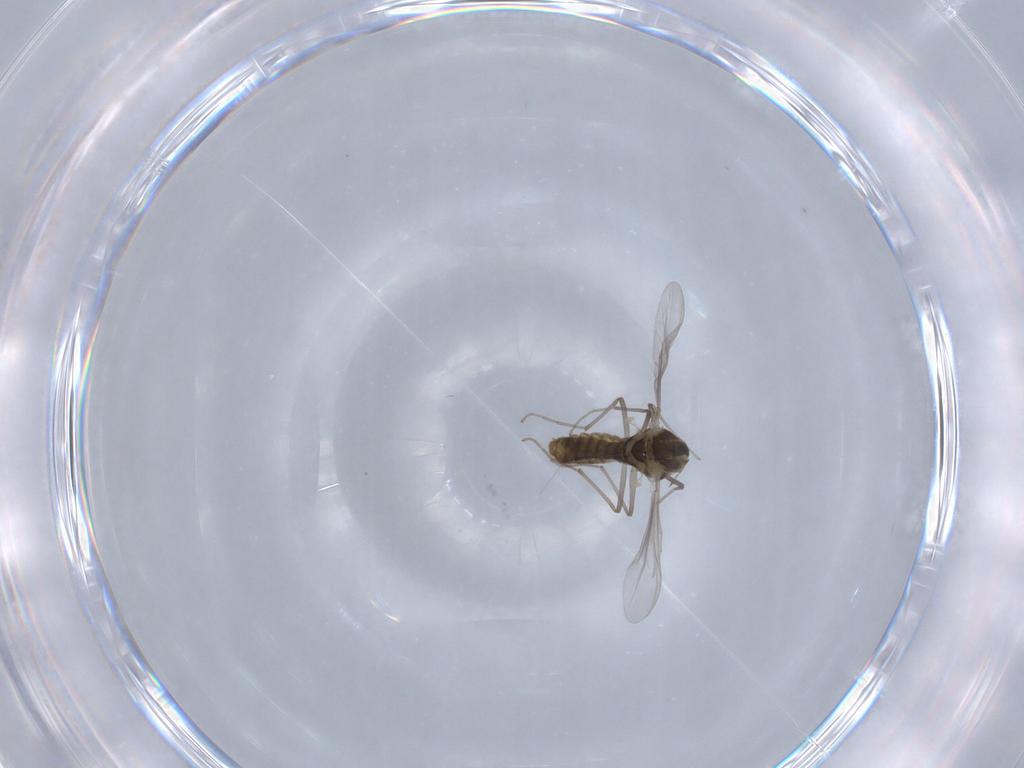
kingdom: Animalia
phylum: Arthropoda
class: Insecta
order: Diptera
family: Chironomidae
